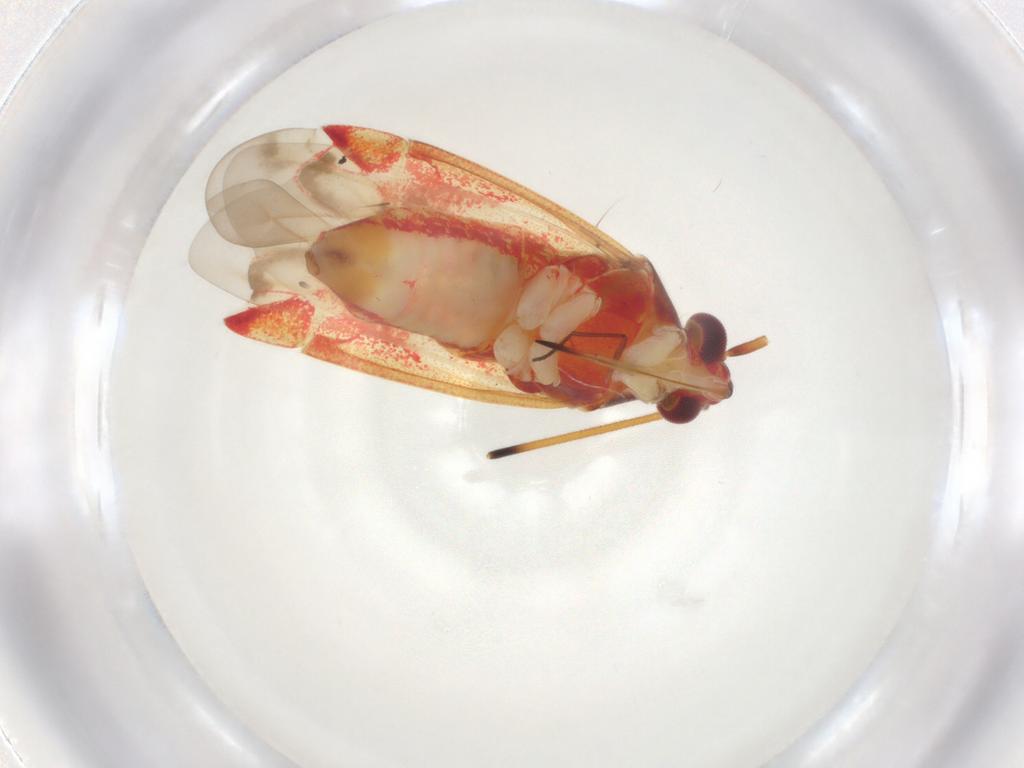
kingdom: Animalia
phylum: Arthropoda
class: Insecta
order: Hemiptera
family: Miridae
